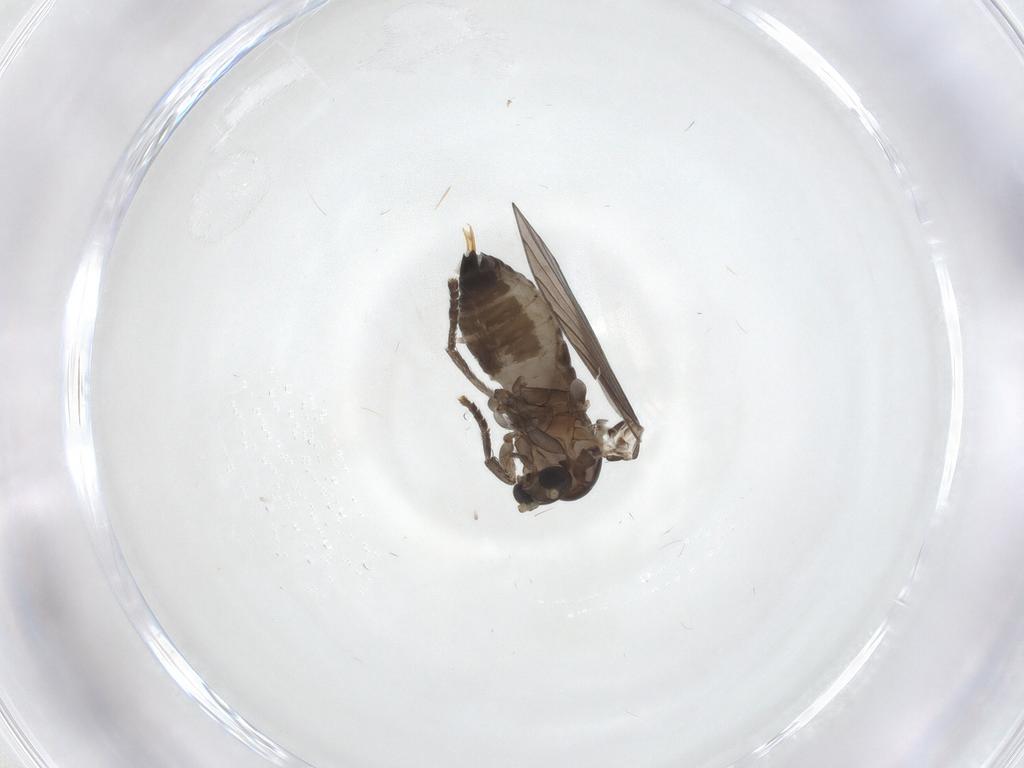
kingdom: Animalia
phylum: Arthropoda
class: Insecta
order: Diptera
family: Psychodidae
